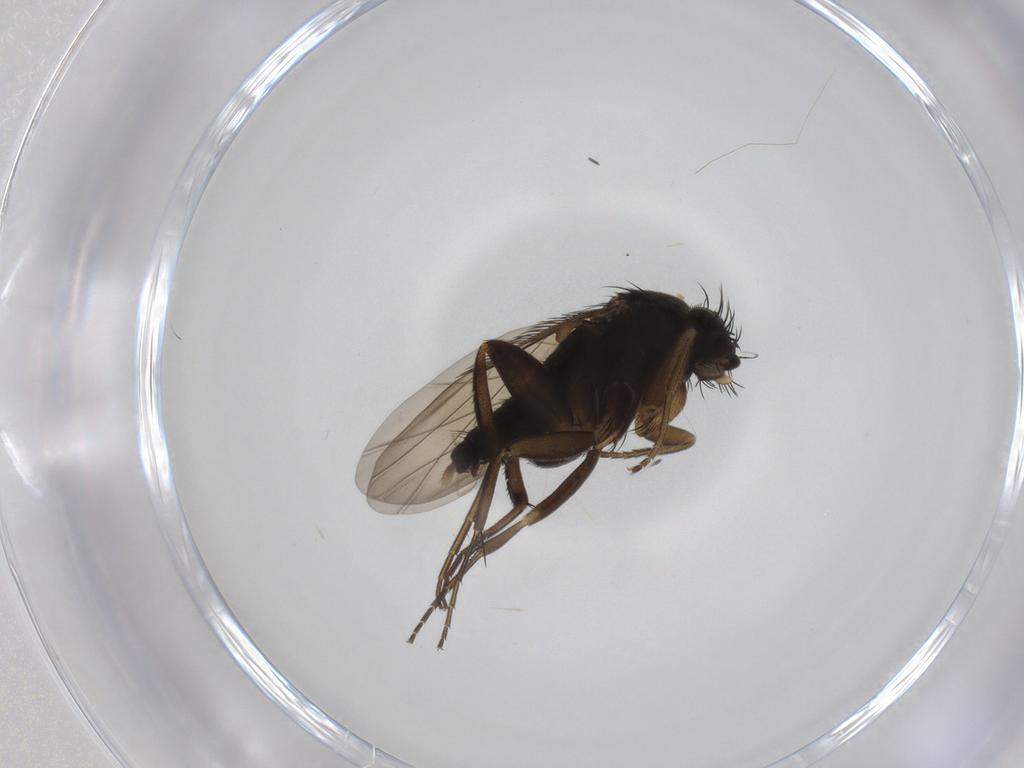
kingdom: Animalia
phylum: Arthropoda
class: Insecta
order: Diptera
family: Phoridae
